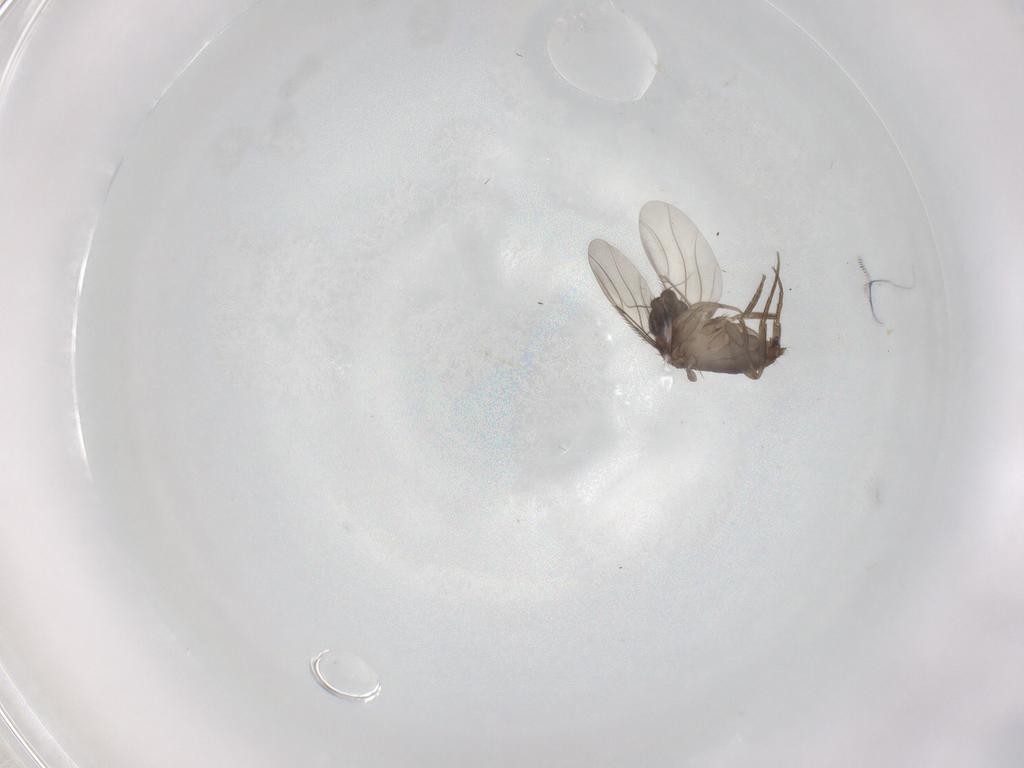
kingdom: Animalia
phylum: Arthropoda
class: Insecta
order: Diptera
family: Phoridae
